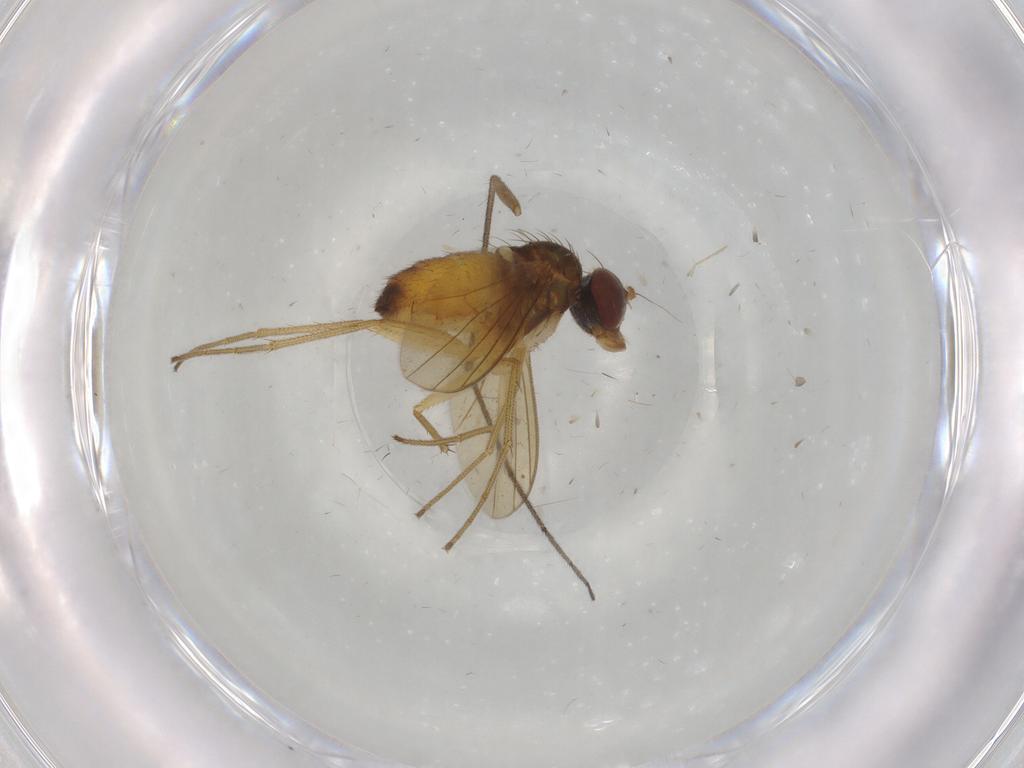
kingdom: Animalia
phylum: Arthropoda
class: Insecta
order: Diptera
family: Dolichopodidae
